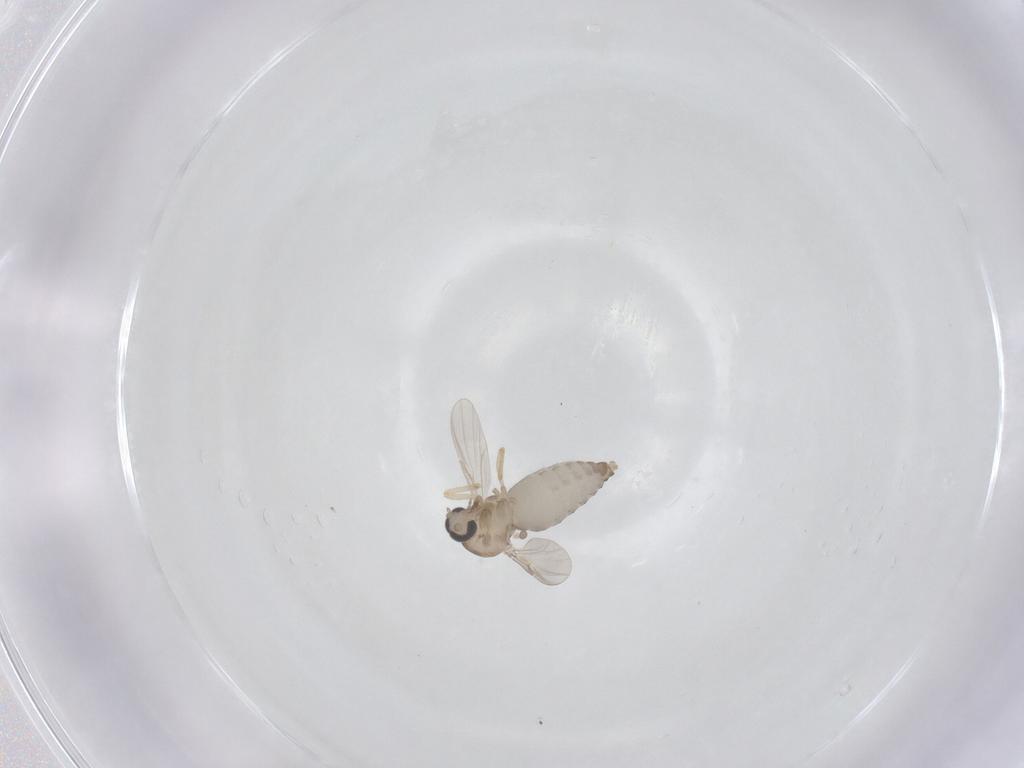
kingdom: Animalia
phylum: Arthropoda
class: Insecta
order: Diptera
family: Ceratopogonidae
